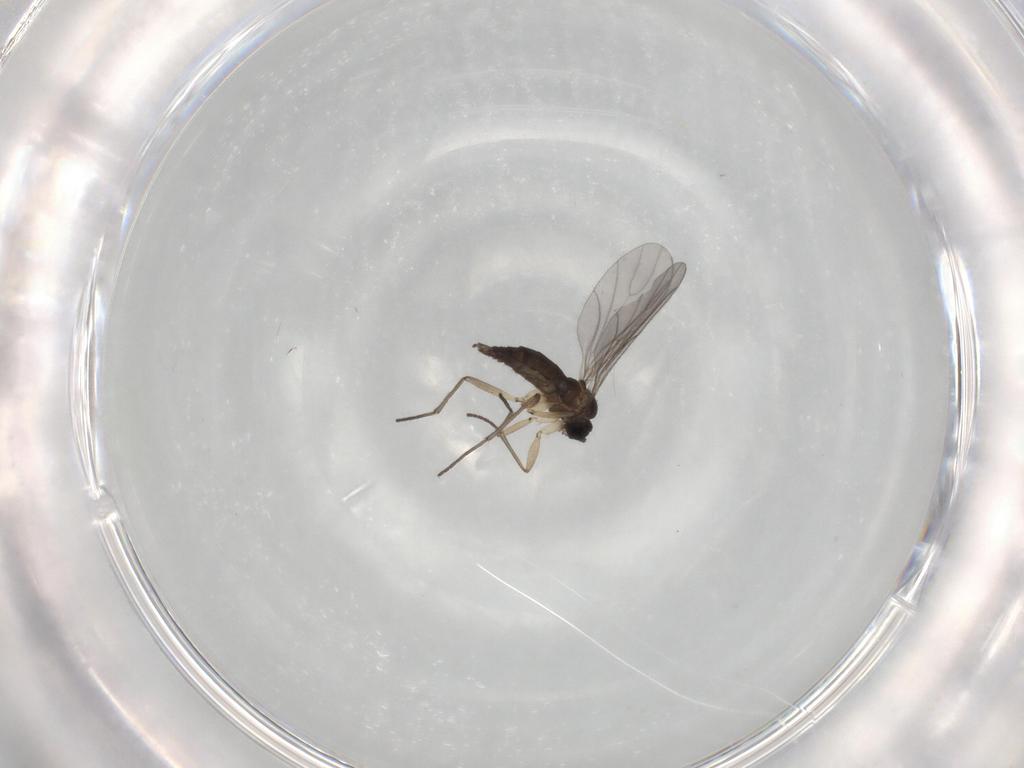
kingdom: Animalia
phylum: Arthropoda
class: Insecta
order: Diptera
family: Sciaridae
